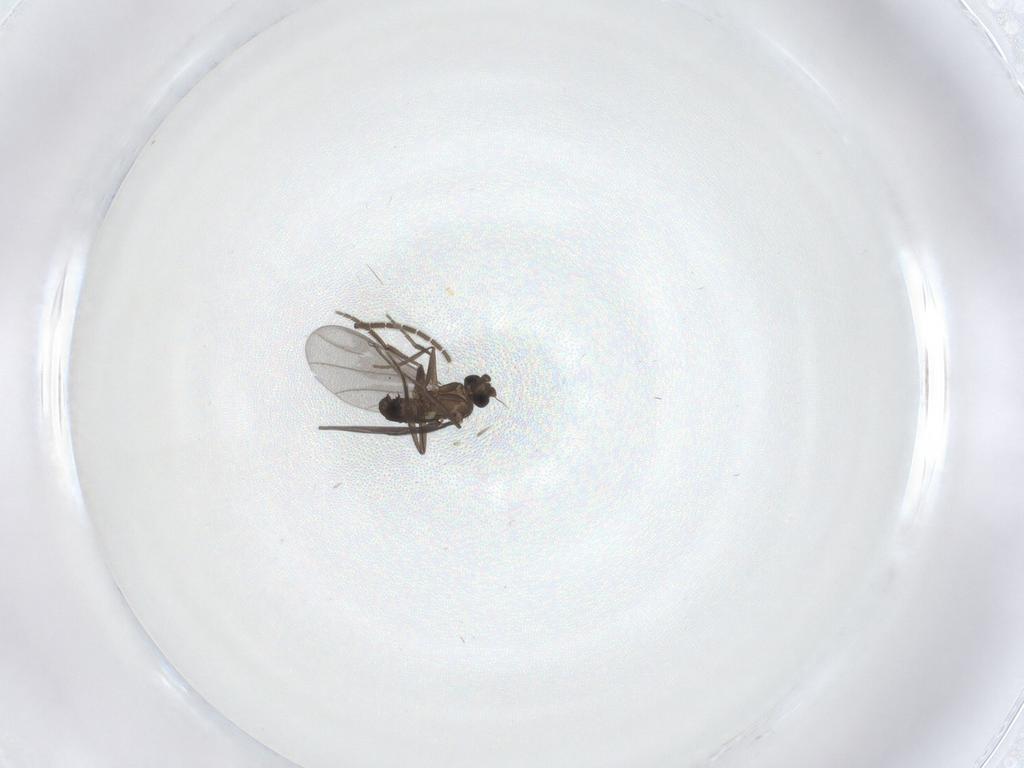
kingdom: Animalia
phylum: Arthropoda
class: Insecta
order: Diptera
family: Phoridae
